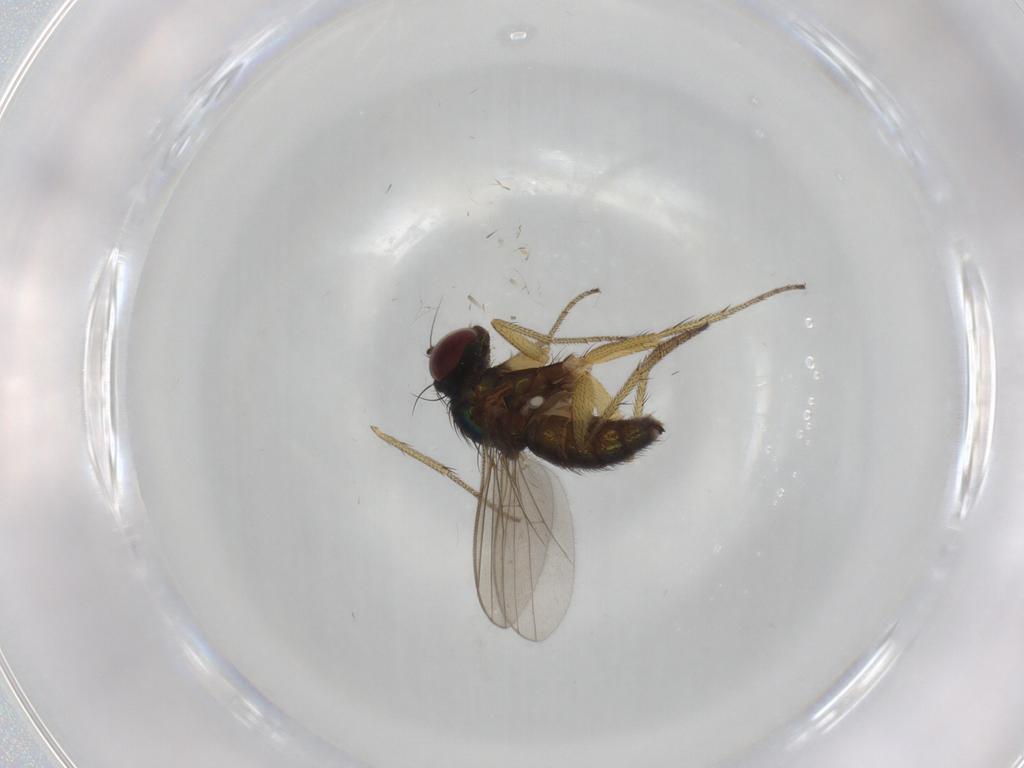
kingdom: Animalia
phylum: Arthropoda
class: Insecta
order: Diptera
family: Dolichopodidae
